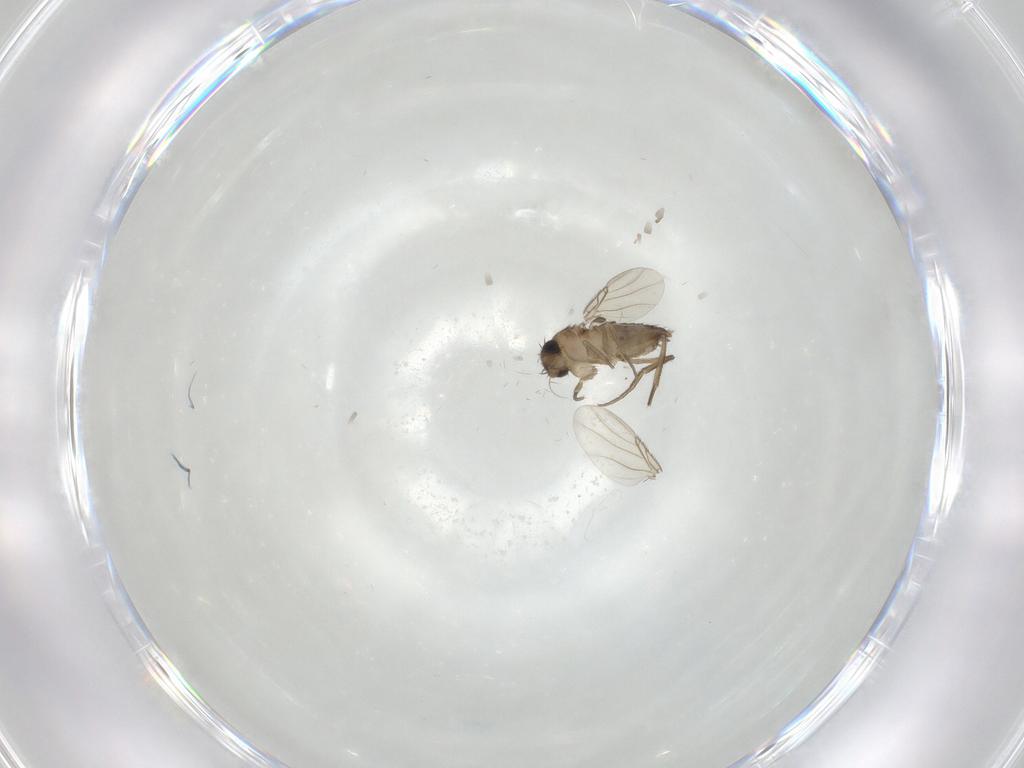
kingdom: Animalia
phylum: Arthropoda
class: Insecta
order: Diptera
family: Phoridae
